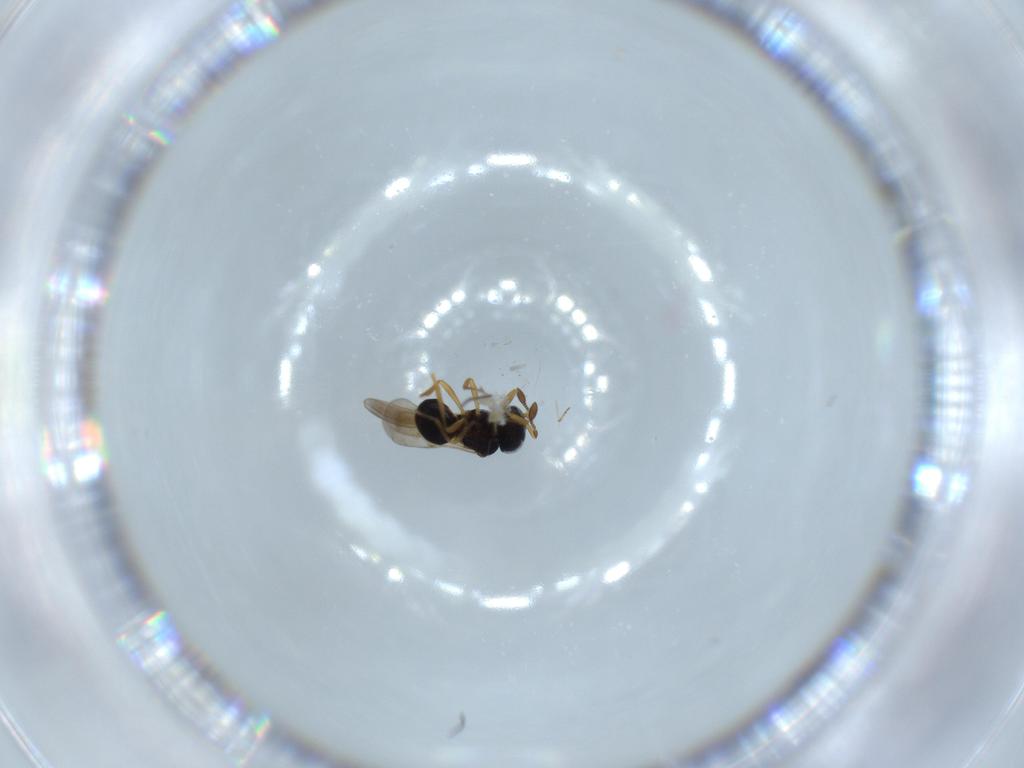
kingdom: Animalia
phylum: Arthropoda
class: Insecta
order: Hymenoptera
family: Scelionidae
